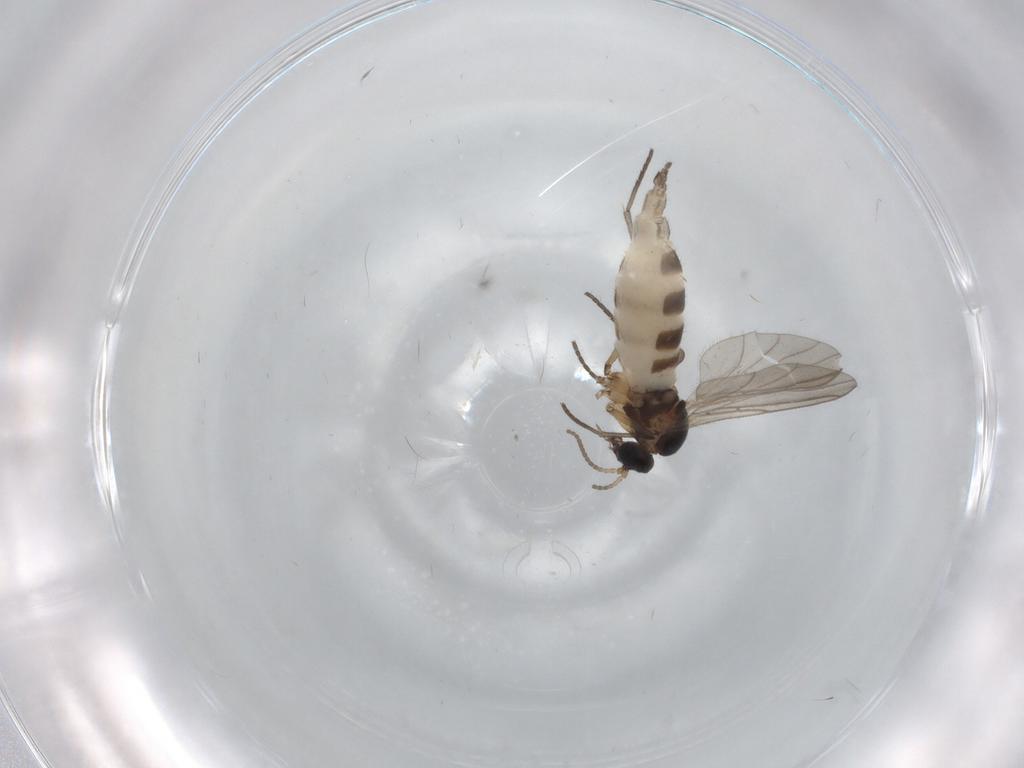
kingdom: Animalia
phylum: Arthropoda
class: Insecta
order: Diptera
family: Sciaridae
